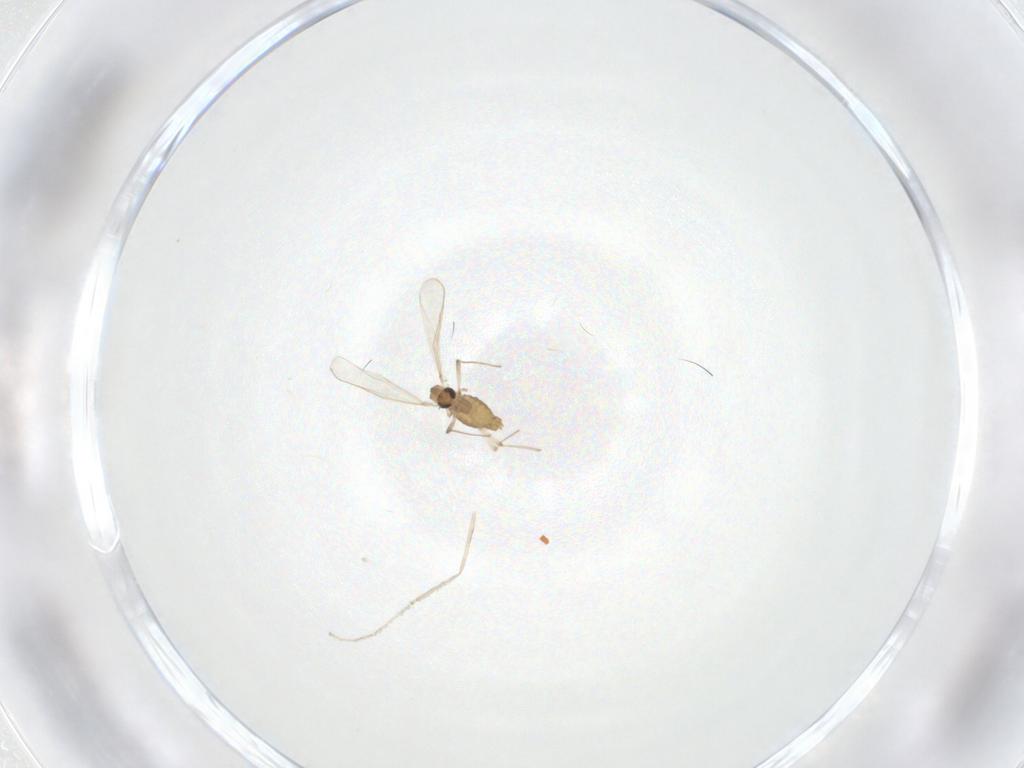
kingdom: Animalia
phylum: Arthropoda
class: Insecta
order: Diptera
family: Chironomidae
